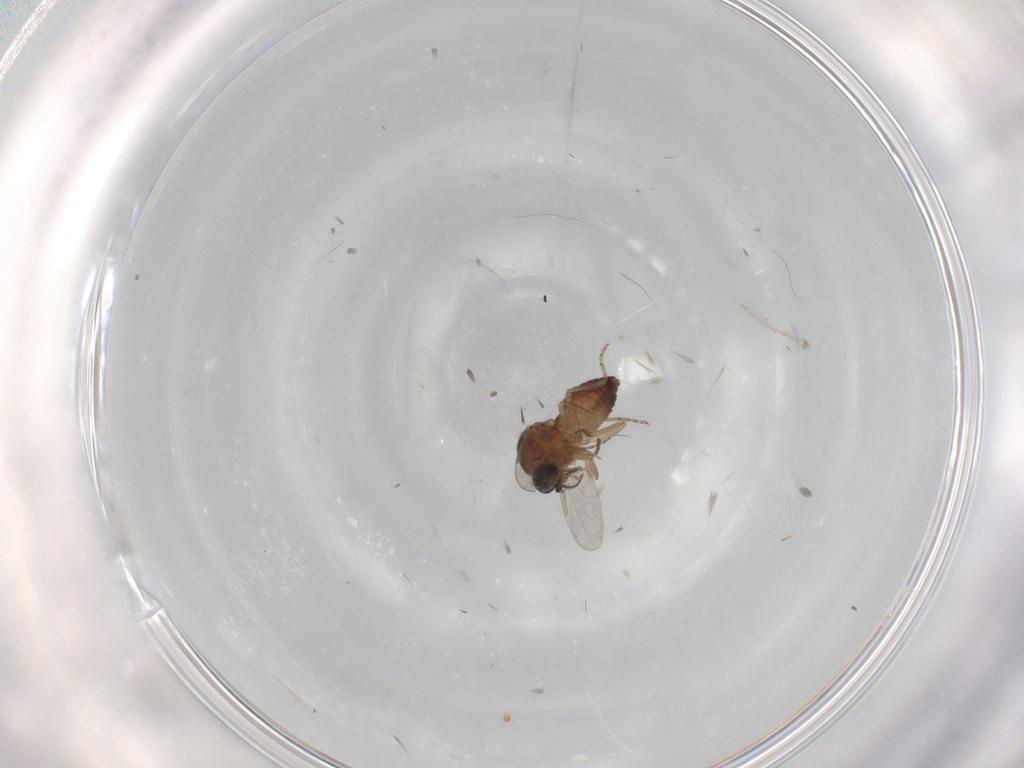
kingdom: Animalia
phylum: Arthropoda
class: Insecta
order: Diptera
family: Ceratopogonidae
